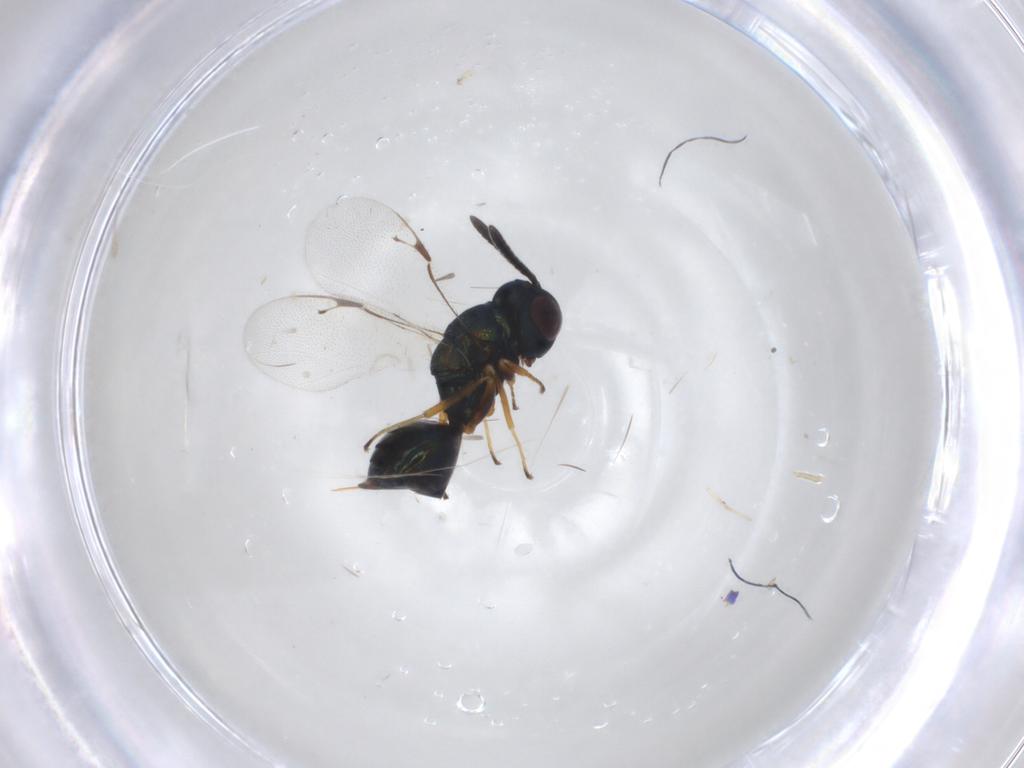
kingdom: Animalia
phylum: Arthropoda
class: Insecta
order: Hymenoptera
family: Pteromalidae
